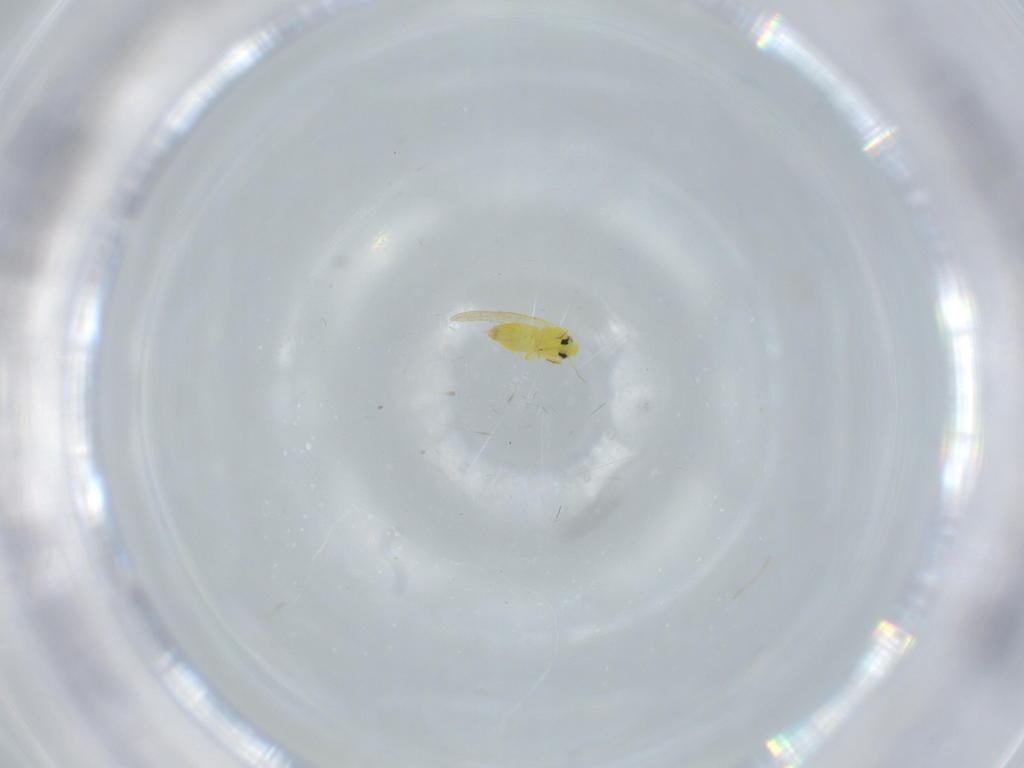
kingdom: Animalia
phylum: Arthropoda
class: Insecta
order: Hemiptera
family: Aleyrodidae
